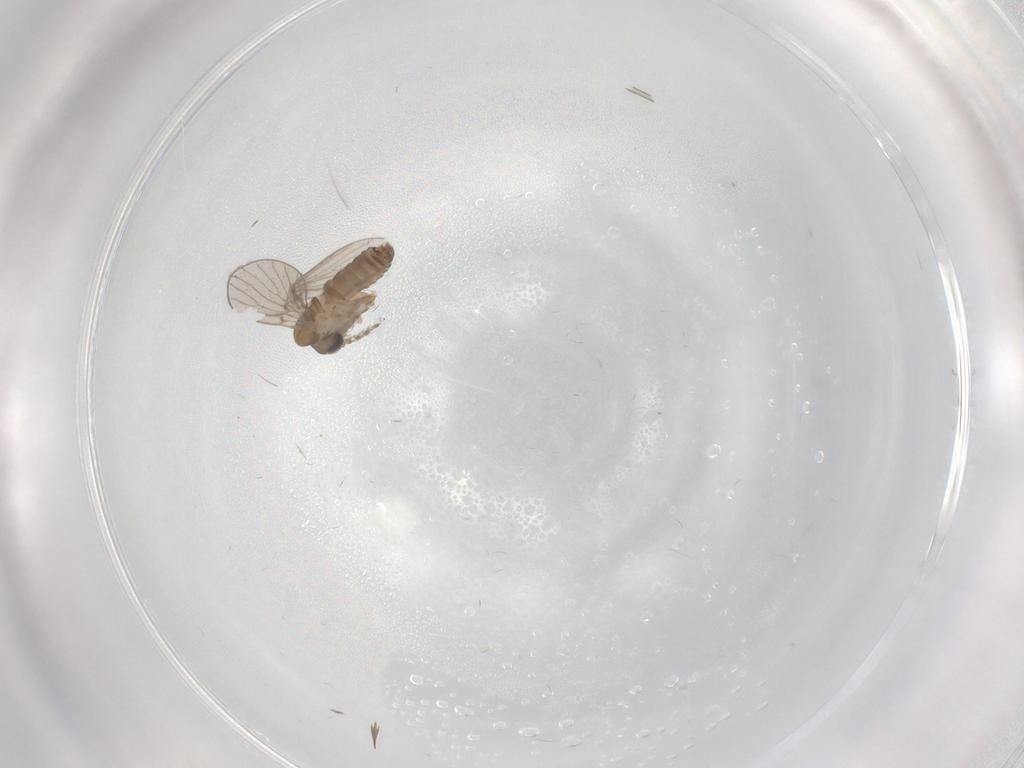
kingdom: Animalia
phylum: Arthropoda
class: Insecta
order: Diptera
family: Psychodidae
